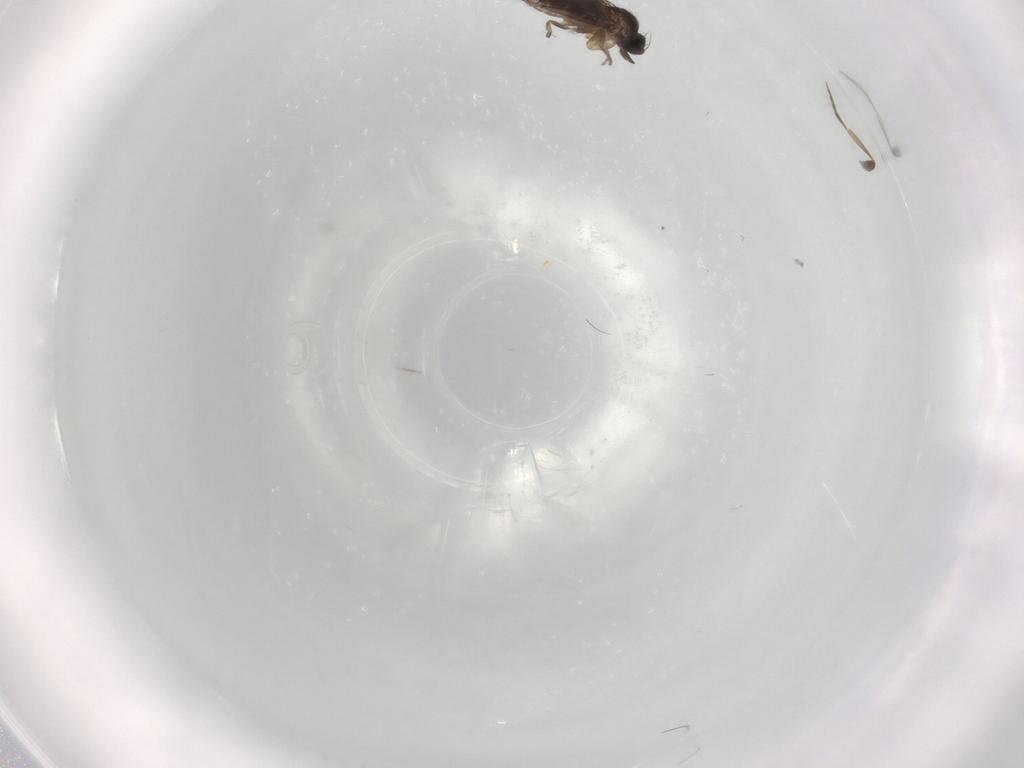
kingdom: Animalia
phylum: Arthropoda
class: Insecta
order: Diptera
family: Phoridae
